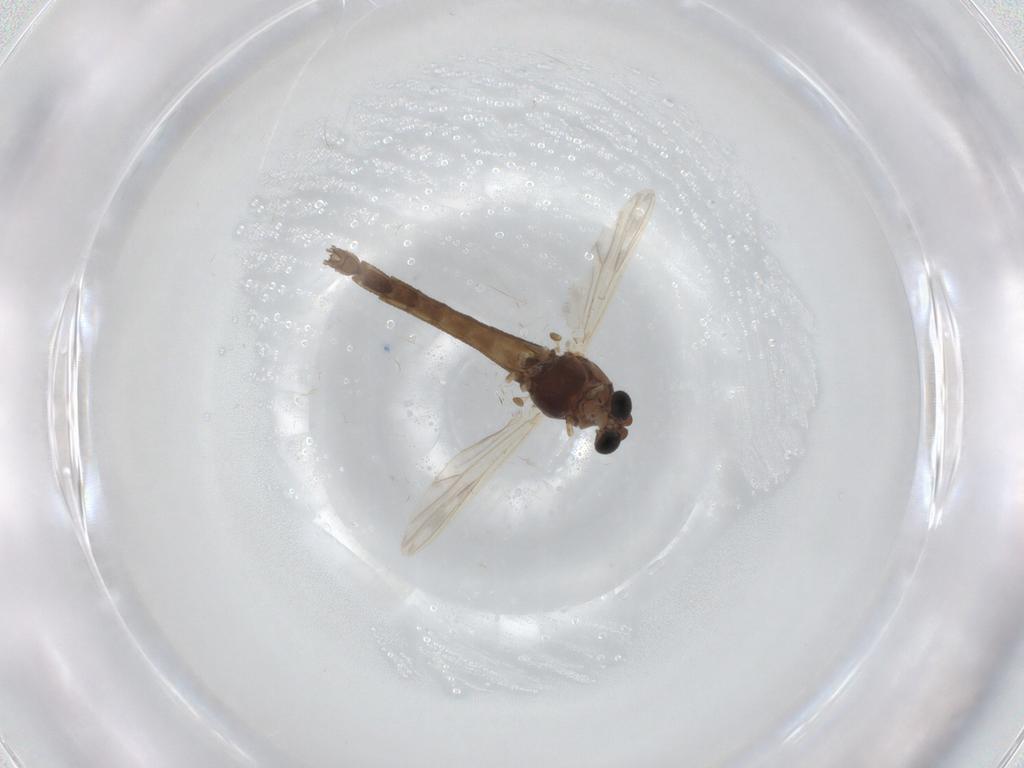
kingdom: Animalia
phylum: Arthropoda
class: Insecta
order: Diptera
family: Chironomidae
